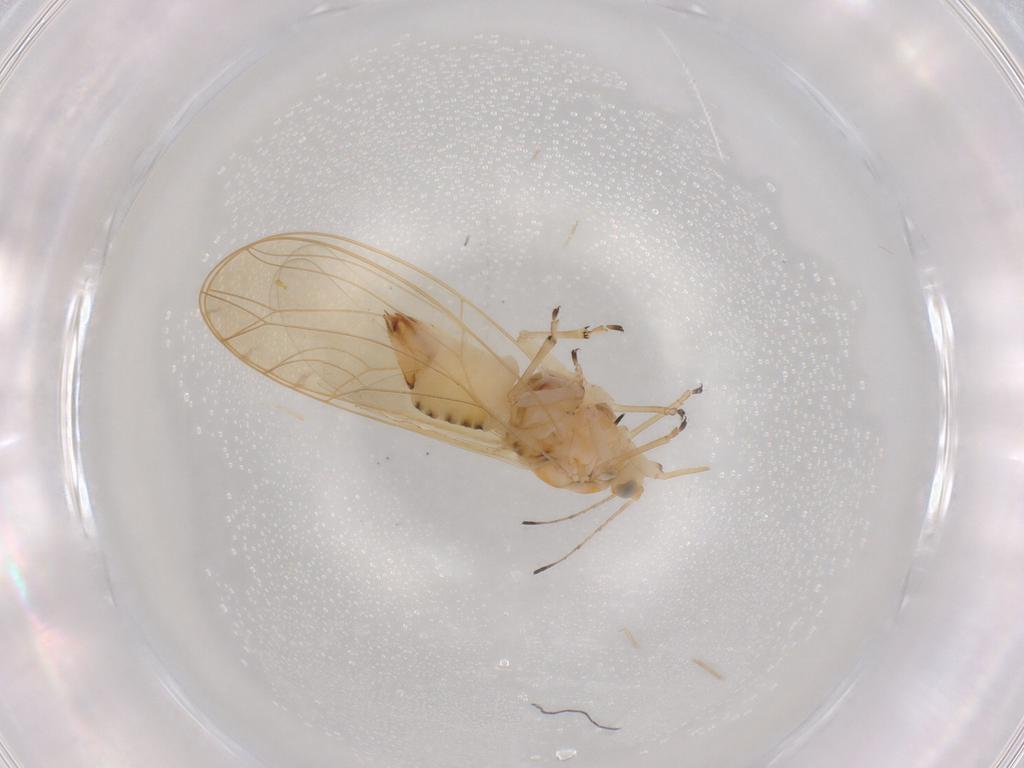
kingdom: Animalia
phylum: Arthropoda
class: Insecta
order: Hemiptera
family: Triozidae
